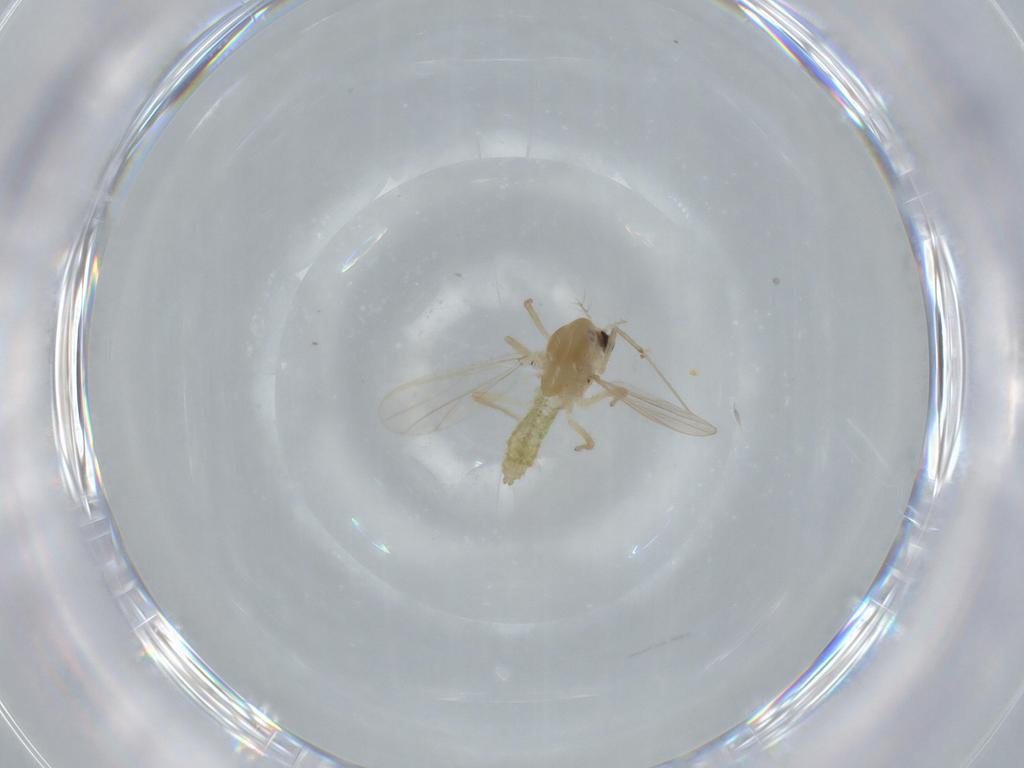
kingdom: Animalia
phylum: Arthropoda
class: Insecta
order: Diptera
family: Chironomidae
